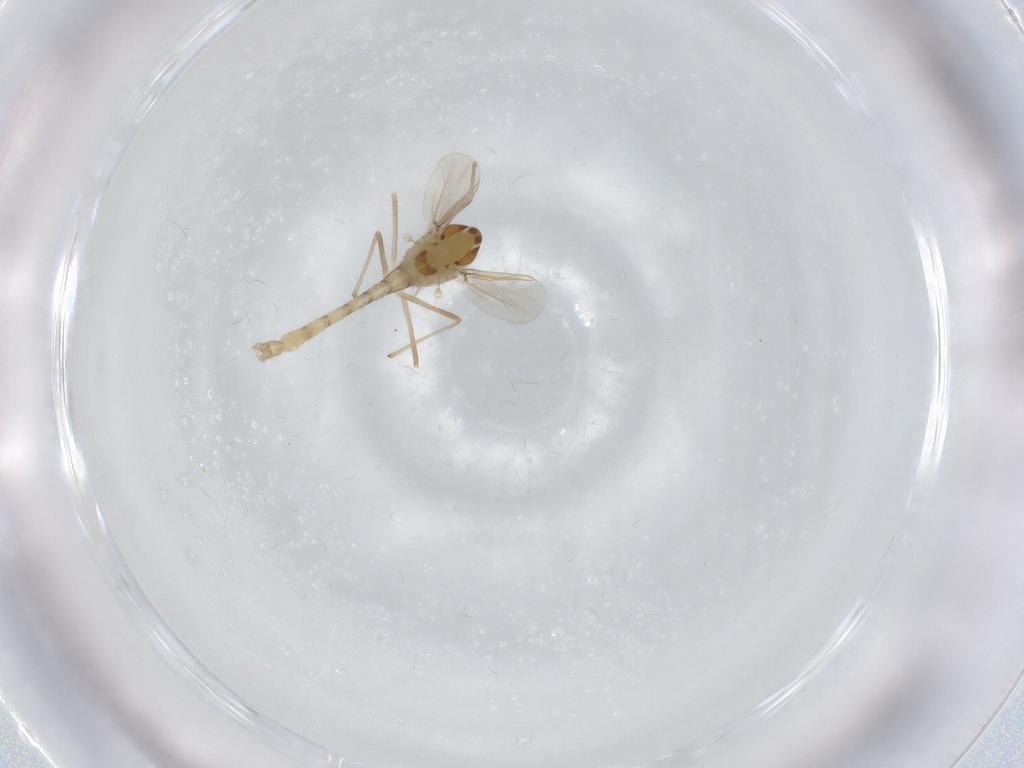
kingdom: Animalia
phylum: Arthropoda
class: Insecta
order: Diptera
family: Chironomidae
